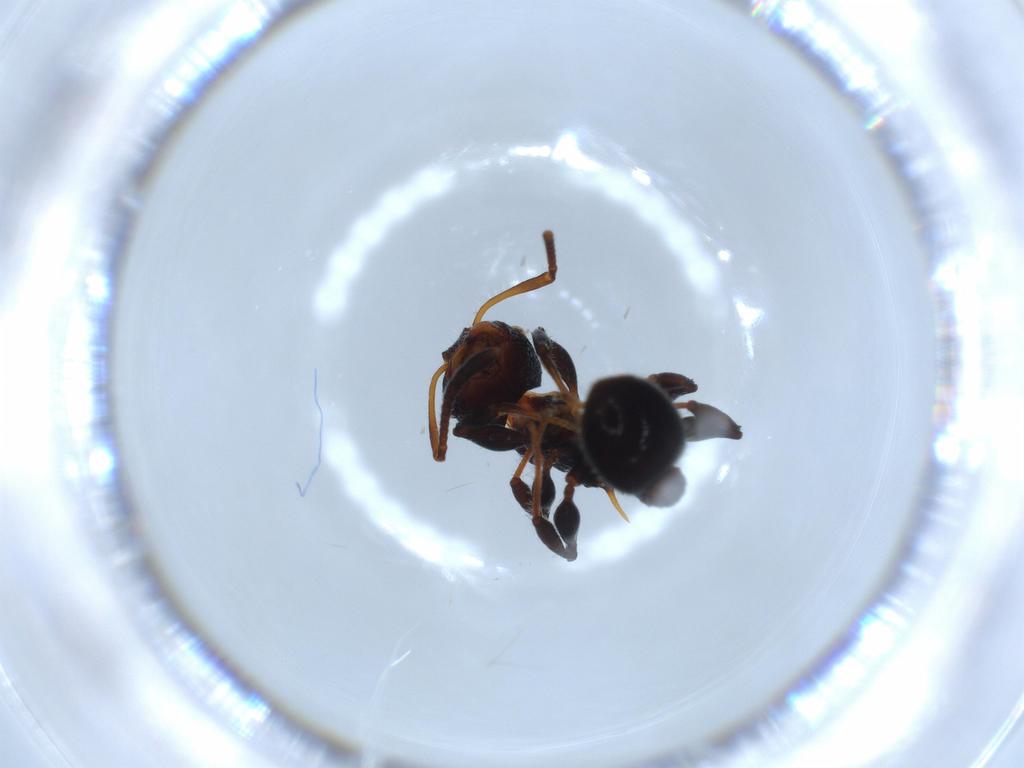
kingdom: Animalia
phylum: Arthropoda
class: Insecta
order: Hymenoptera
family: Formicidae
